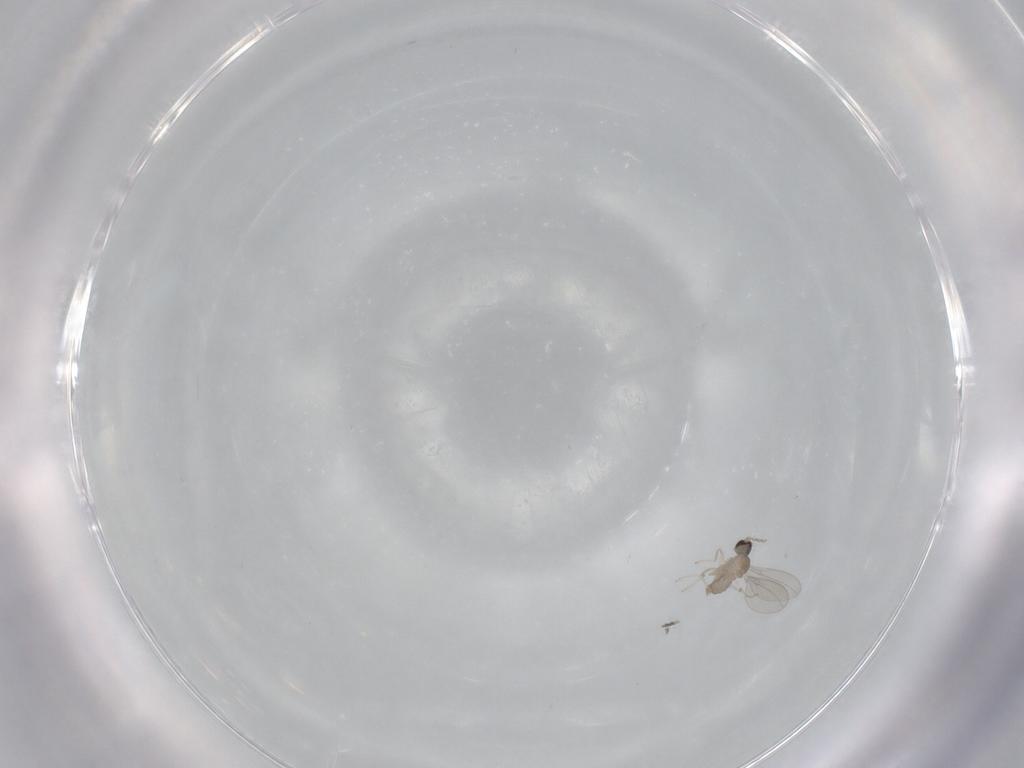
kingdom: Animalia
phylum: Arthropoda
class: Insecta
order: Diptera
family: Cecidomyiidae
